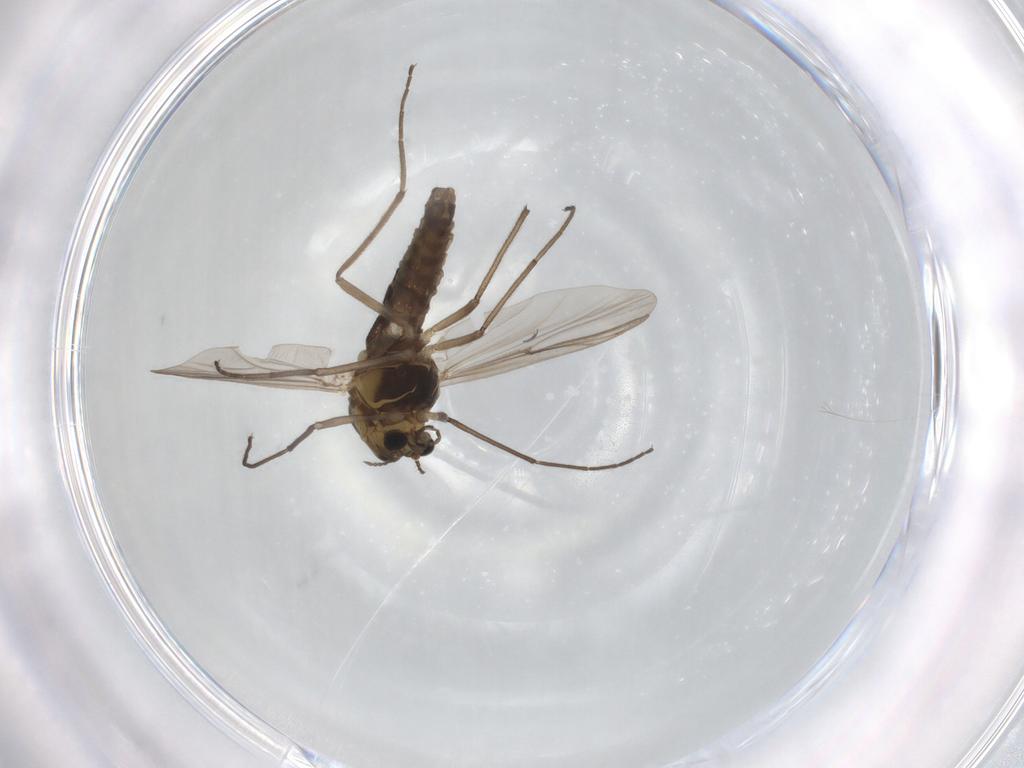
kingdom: Animalia
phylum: Arthropoda
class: Insecta
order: Diptera
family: Chironomidae
